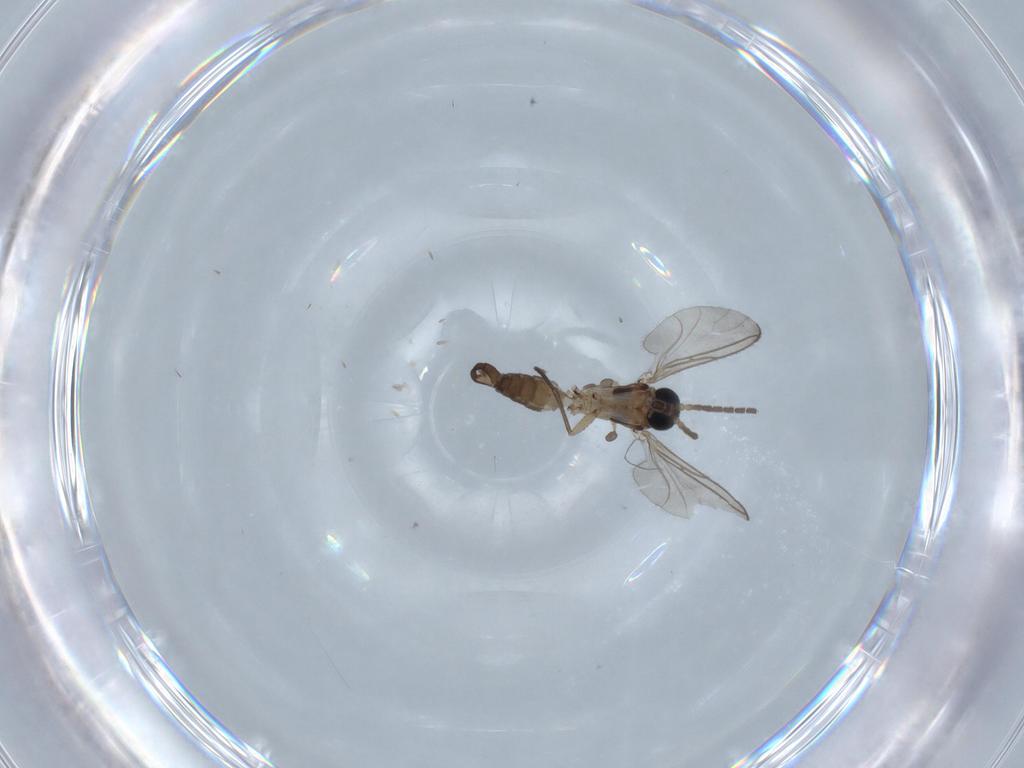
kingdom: Animalia
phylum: Arthropoda
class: Insecta
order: Diptera
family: Sciaridae
